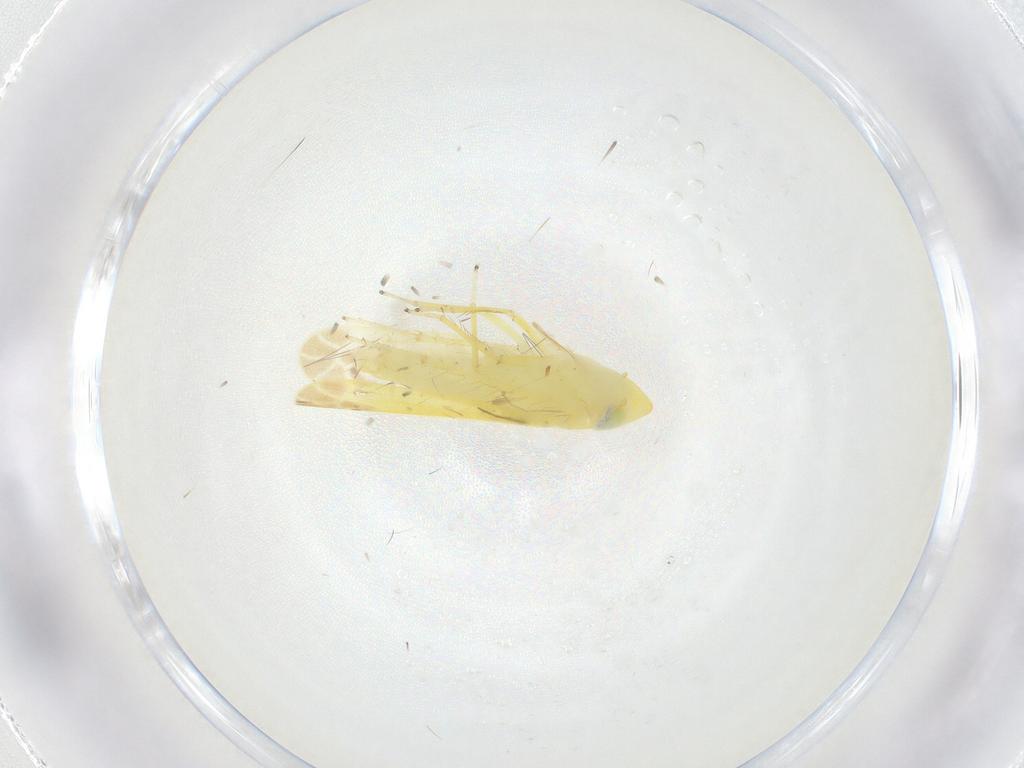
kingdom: Animalia
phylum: Arthropoda
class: Insecta
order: Hemiptera
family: Cicadellidae
